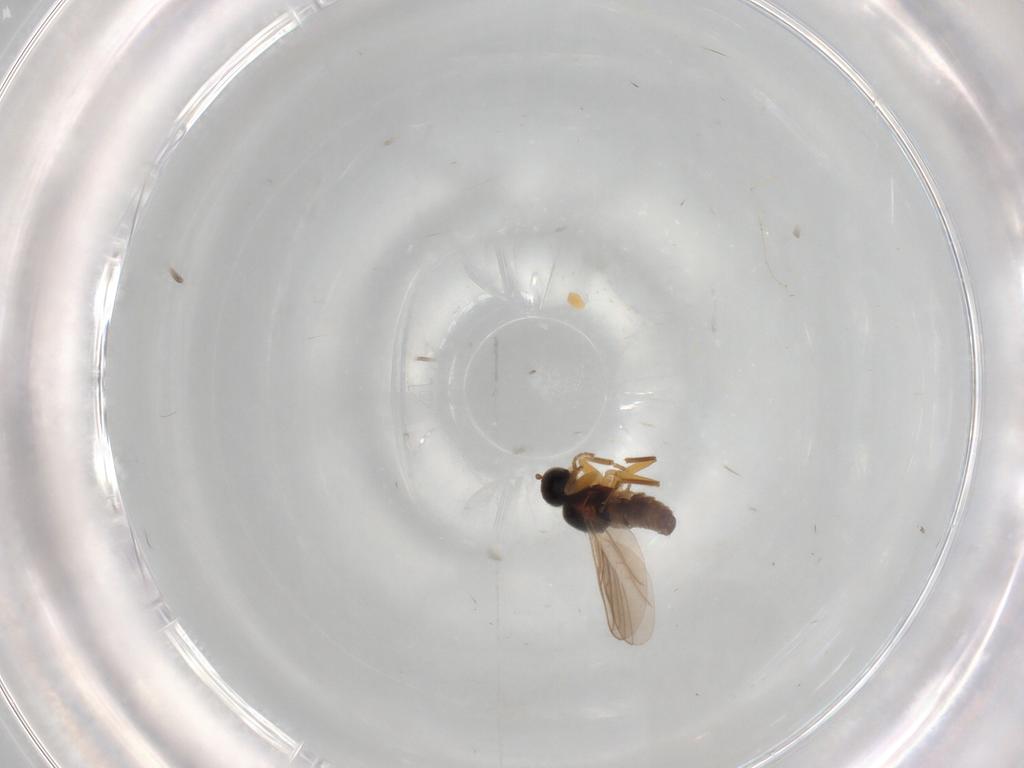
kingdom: Animalia
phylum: Arthropoda
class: Insecta
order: Diptera
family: Hybotidae
